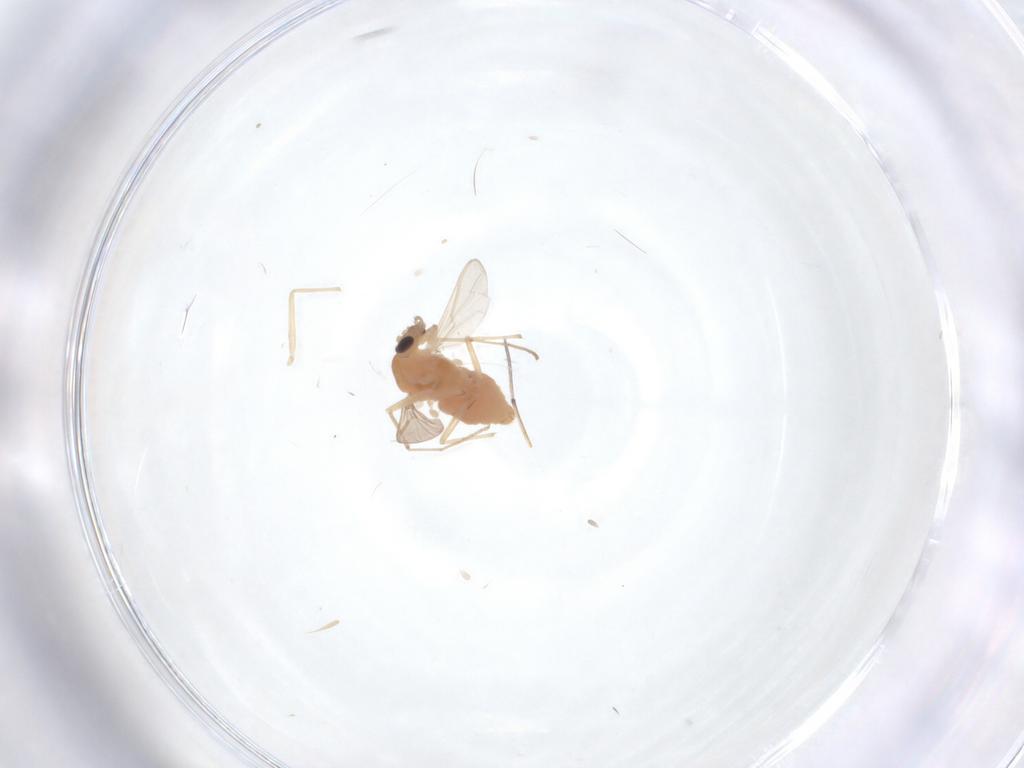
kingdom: Animalia
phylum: Arthropoda
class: Insecta
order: Diptera
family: Chironomidae
